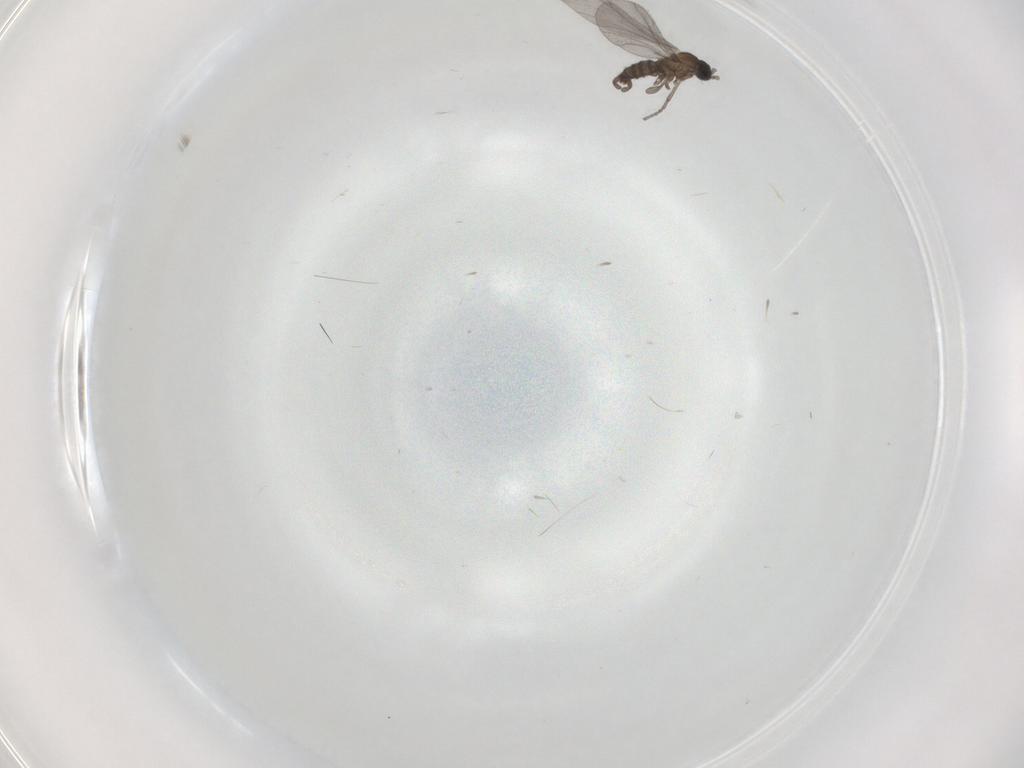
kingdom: Animalia
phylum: Arthropoda
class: Insecta
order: Diptera
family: Sciaridae
